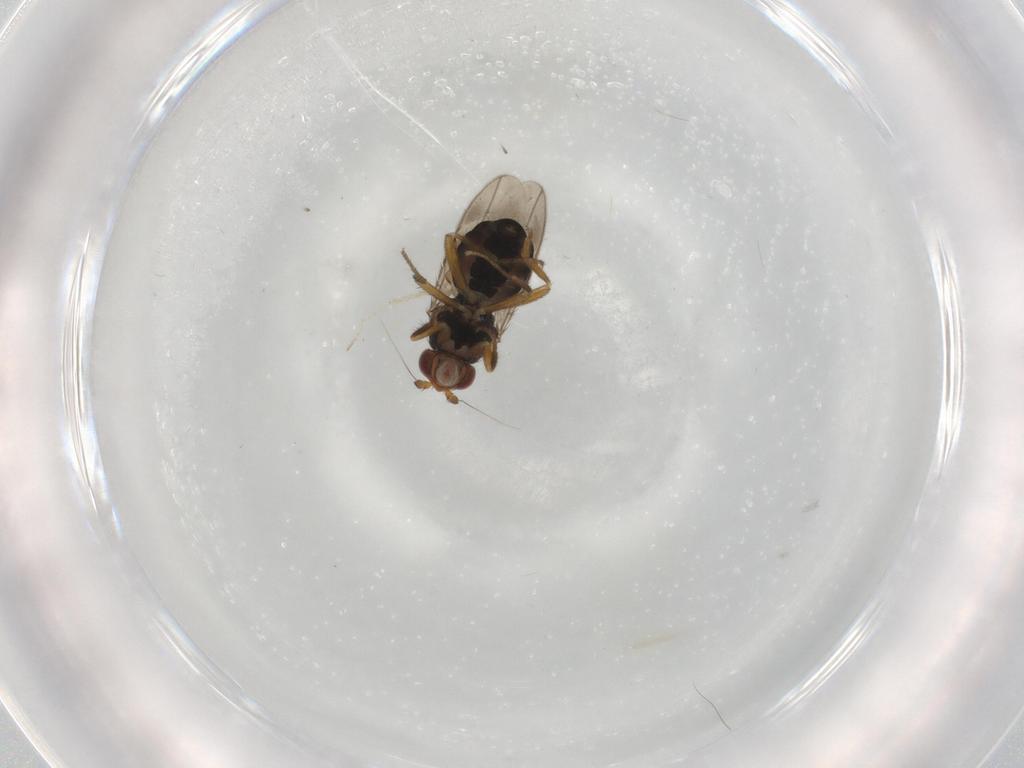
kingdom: Animalia
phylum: Arthropoda
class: Insecta
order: Diptera
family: Sphaeroceridae
